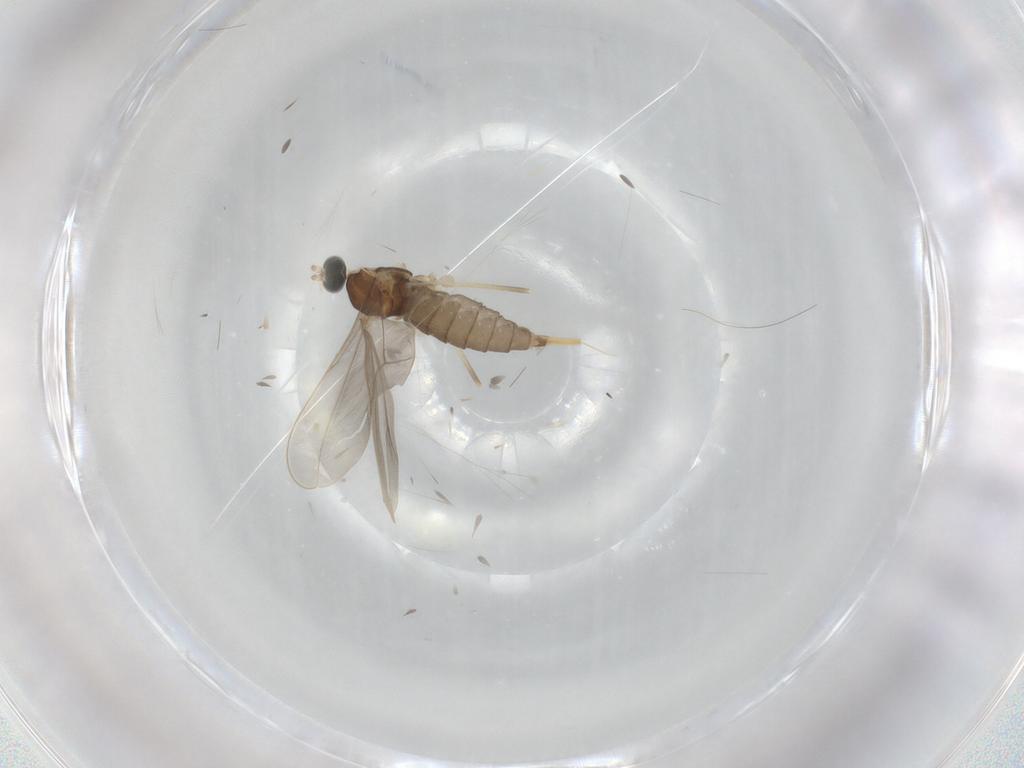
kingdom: Animalia
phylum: Arthropoda
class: Insecta
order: Diptera
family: Cecidomyiidae
